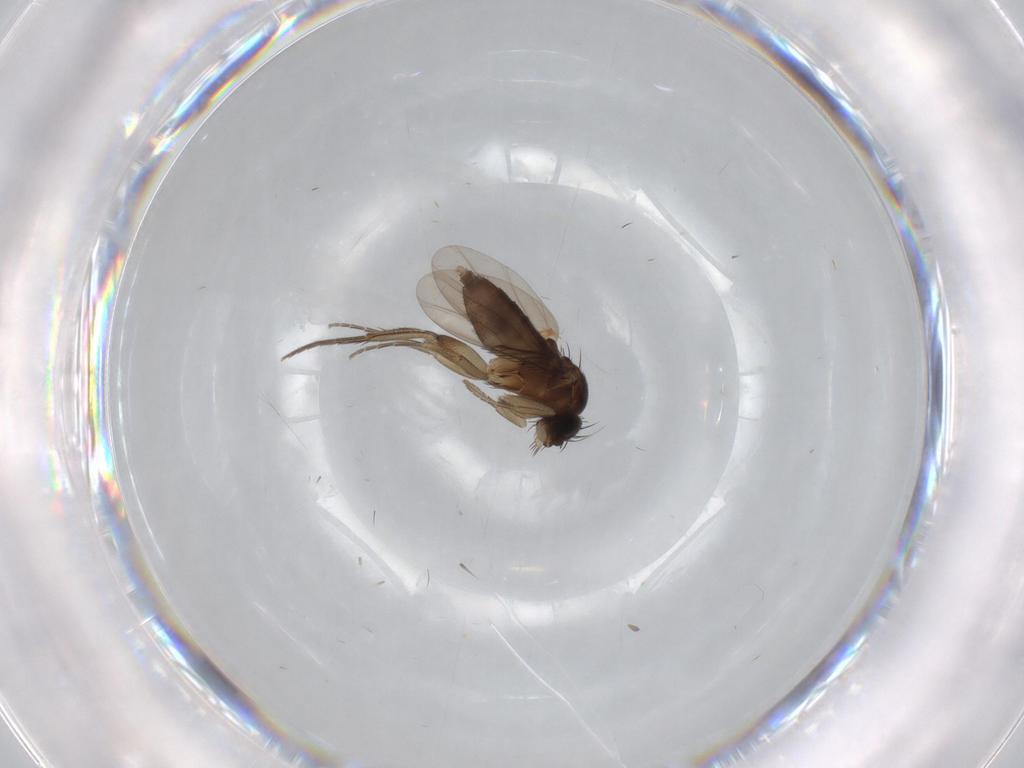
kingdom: Animalia
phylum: Arthropoda
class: Insecta
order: Diptera
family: Phoridae
